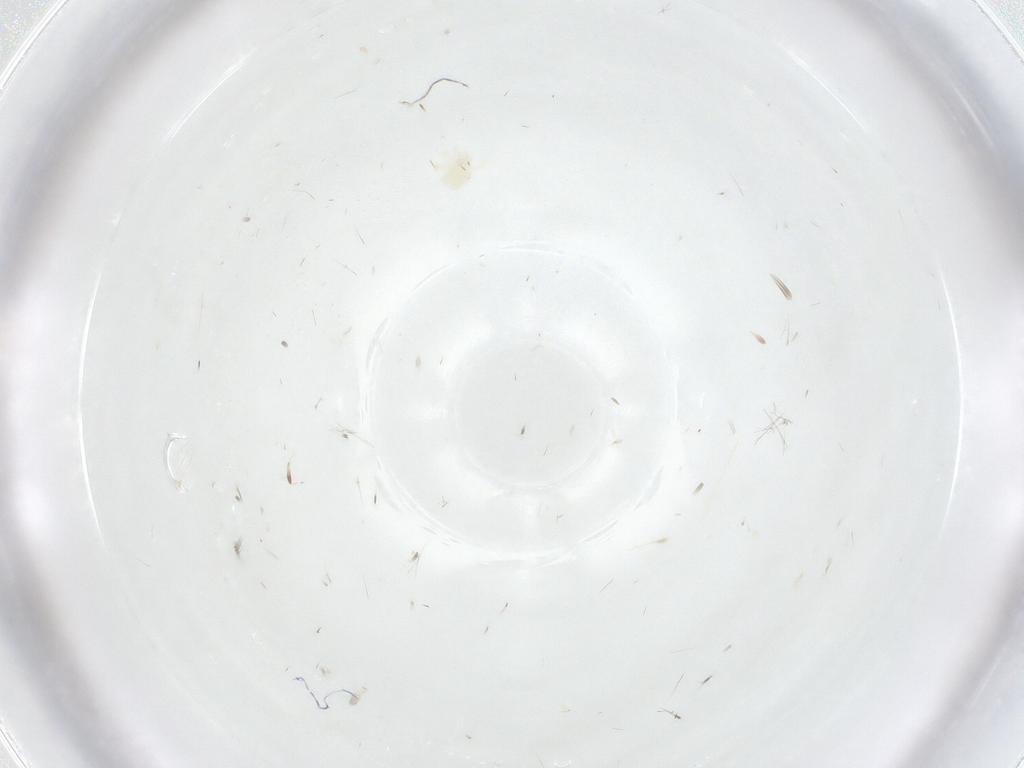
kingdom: Animalia
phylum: Arthropoda
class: Arachnida
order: Trombidiformes
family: Anystidae
